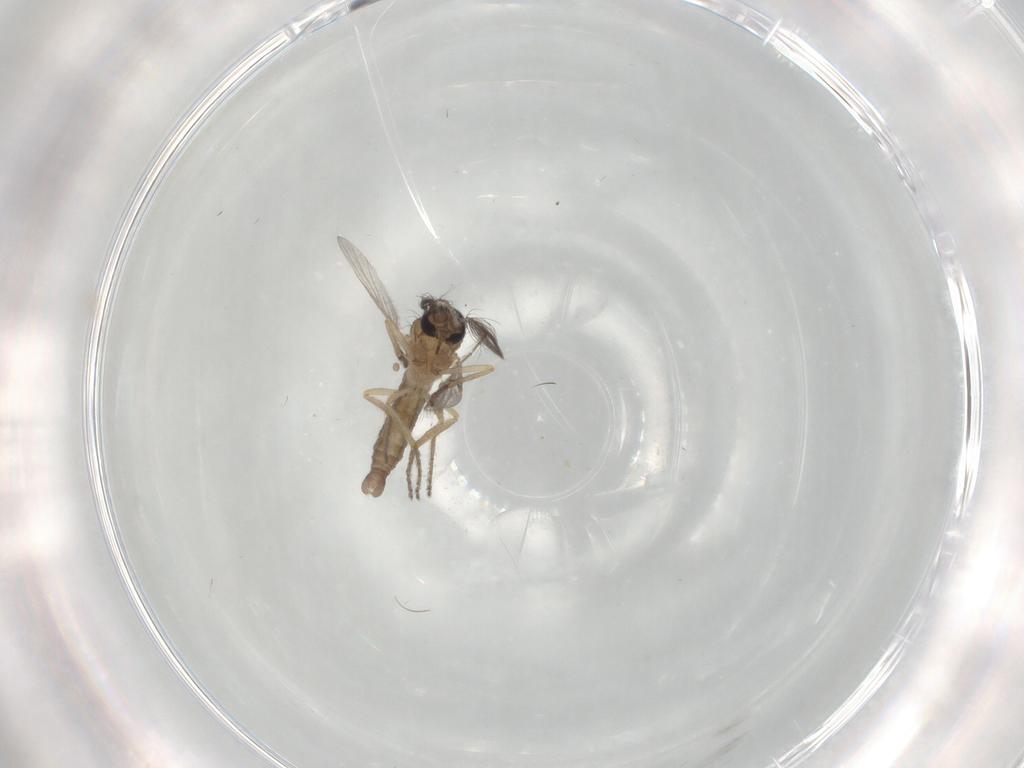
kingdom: Animalia
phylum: Arthropoda
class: Insecta
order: Diptera
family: Ceratopogonidae
